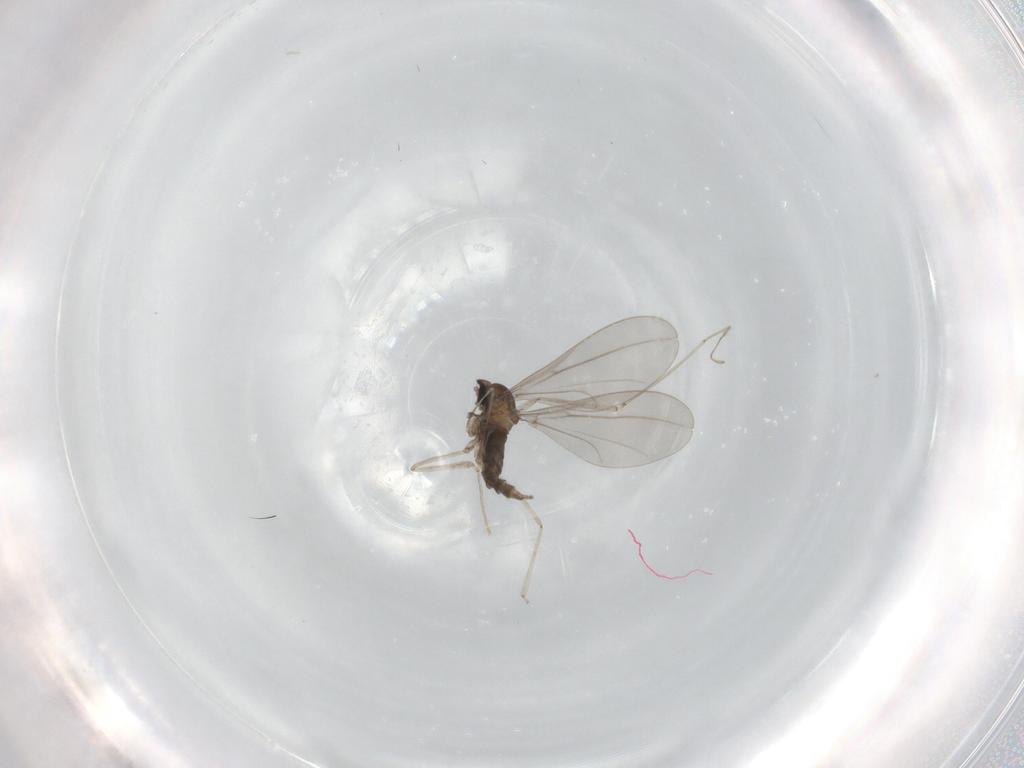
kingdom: Animalia
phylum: Arthropoda
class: Insecta
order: Diptera
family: Cecidomyiidae
